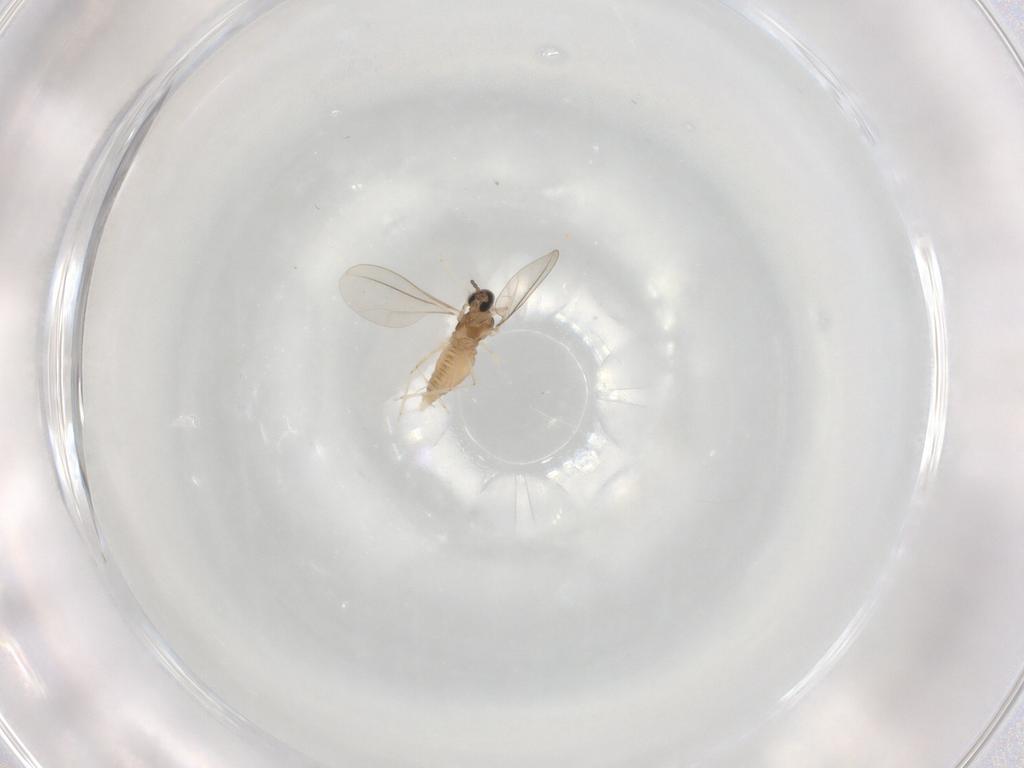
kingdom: Animalia
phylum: Arthropoda
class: Insecta
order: Diptera
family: Cecidomyiidae
